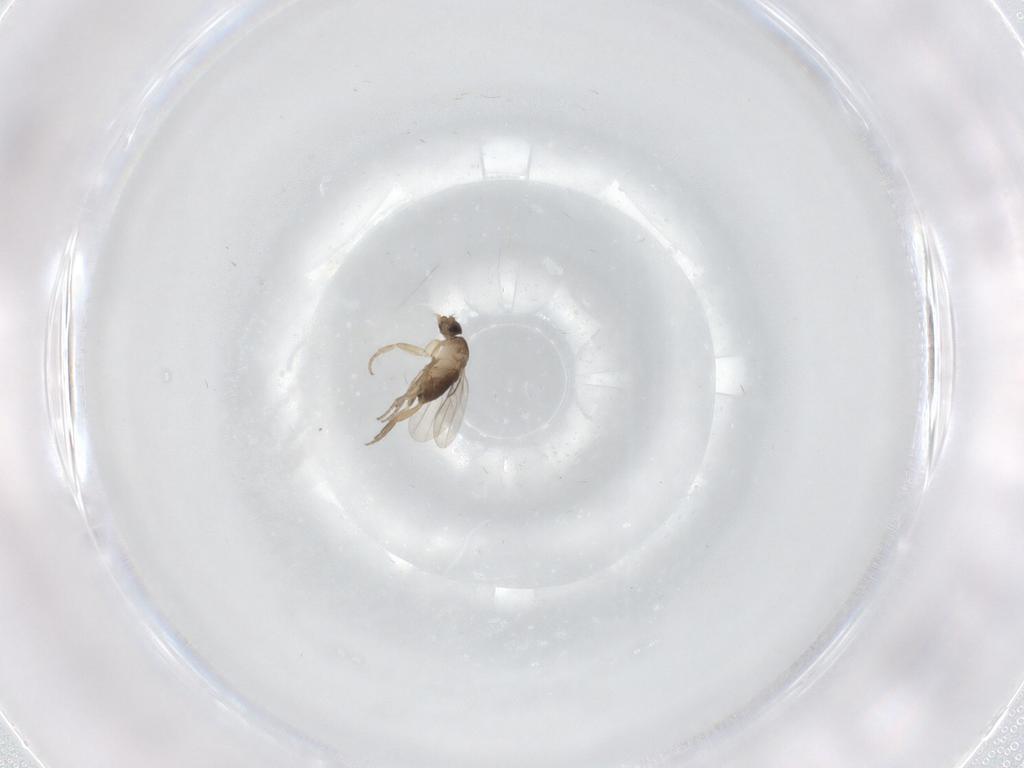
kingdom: Animalia
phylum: Arthropoda
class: Insecta
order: Diptera
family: Phoridae
